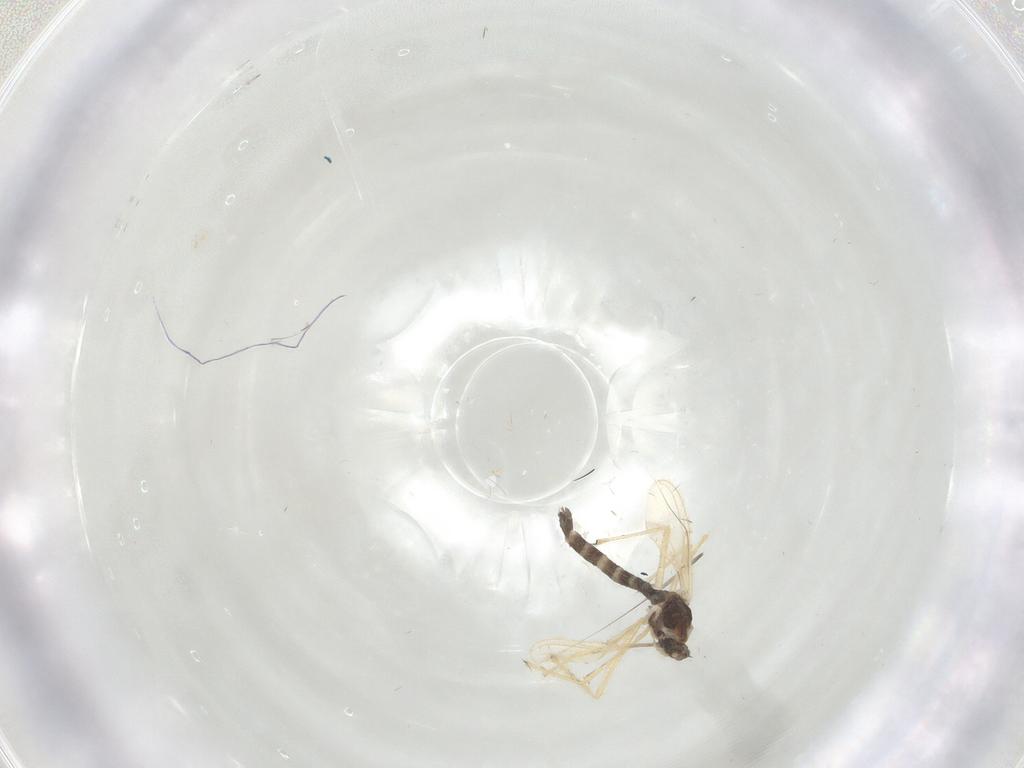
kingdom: Animalia
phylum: Arthropoda
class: Insecta
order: Diptera
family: Chironomidae
